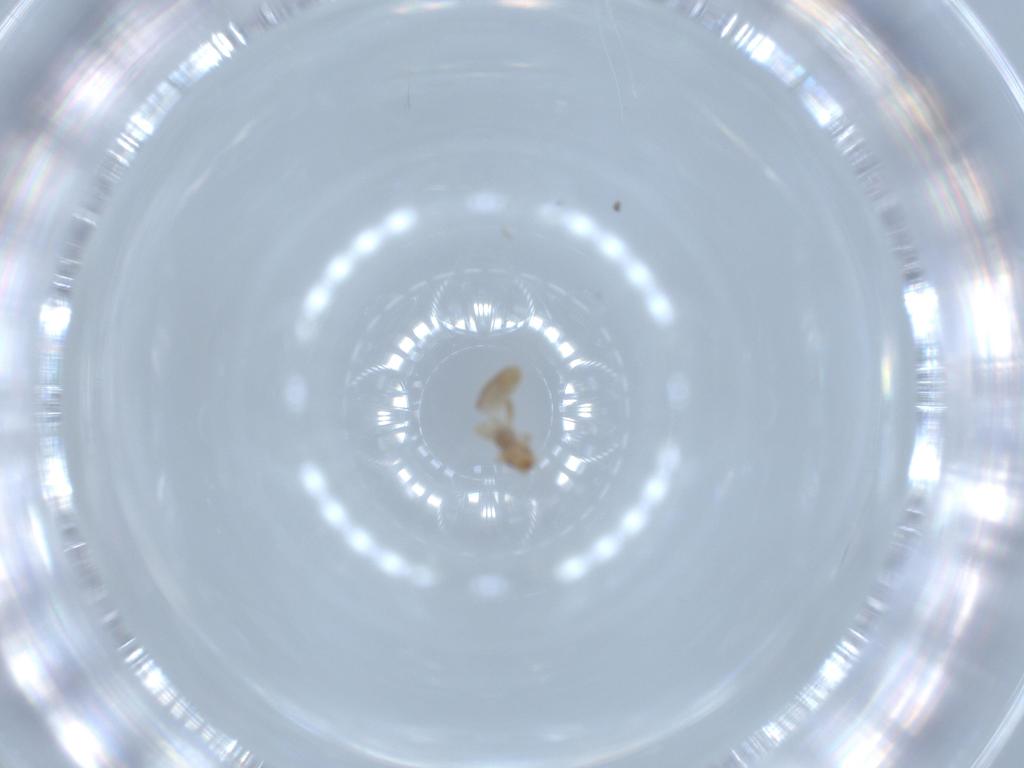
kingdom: Animalia
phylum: Arthropoda
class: Insecta
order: Psocodea
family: Liposcelididae
